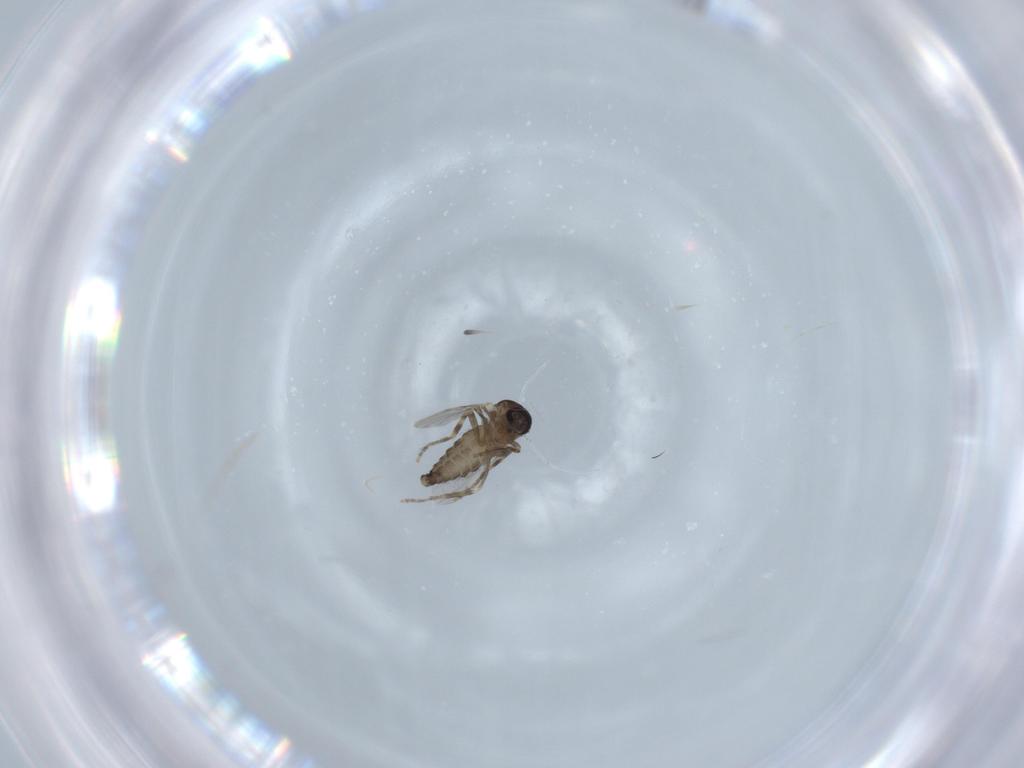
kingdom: Animalia
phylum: Arthropoda
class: Insecta
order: Diptera
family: Ceratopogonidae
